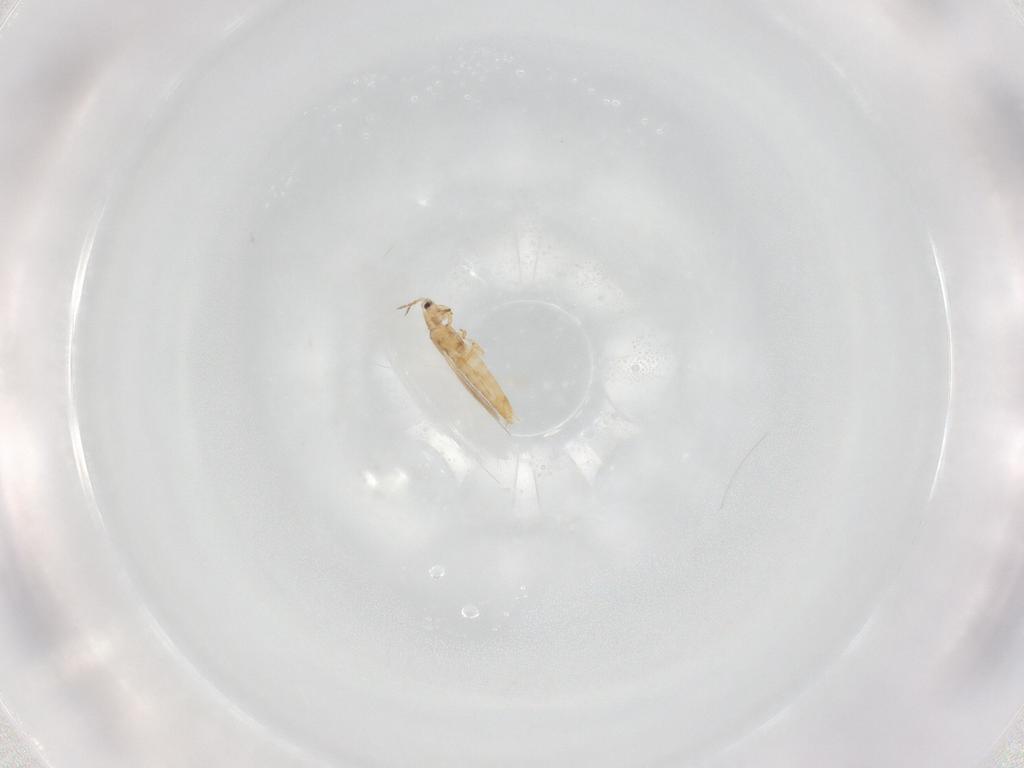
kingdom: Animalia
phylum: Arthropoda
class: Insecta
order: Thysanoptera
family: Thripidae
